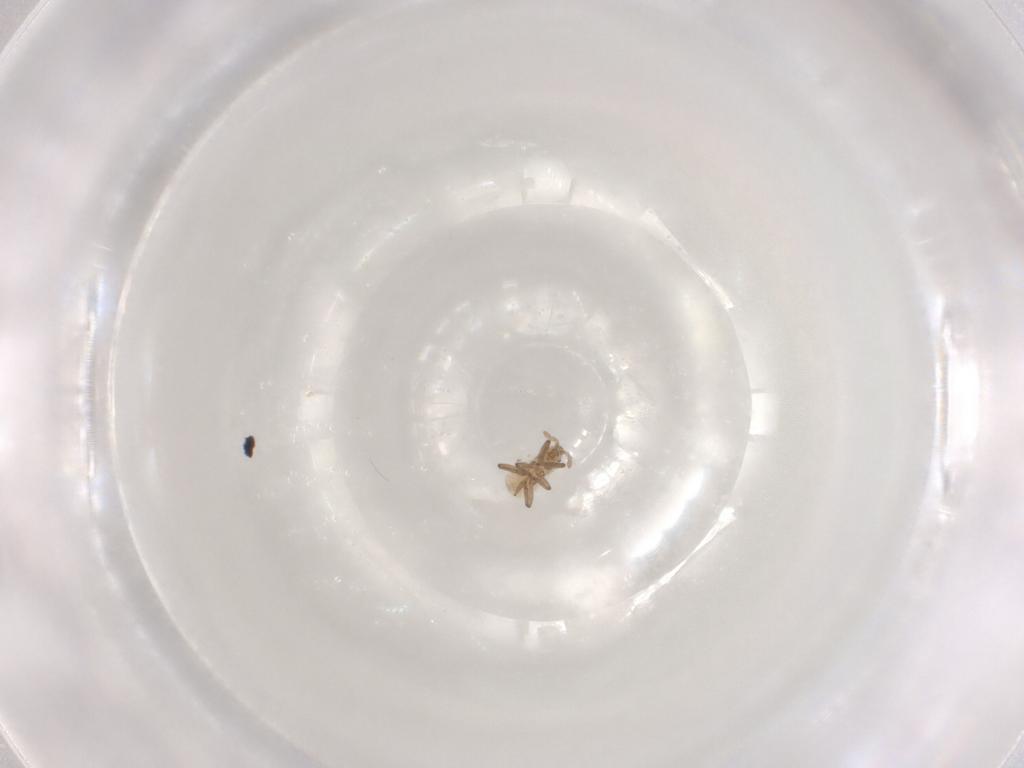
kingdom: Animalia
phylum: Arthropoda
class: Insecta
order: Hemiptera
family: Aphididae
